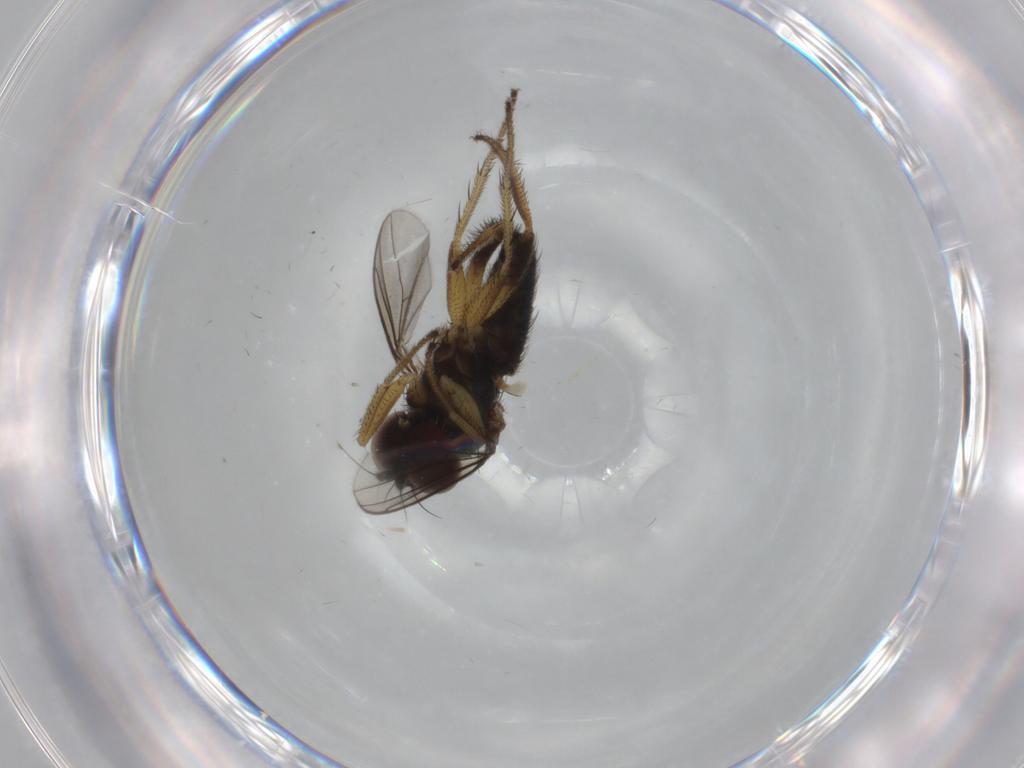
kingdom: Animalia
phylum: Arthropoda
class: Insecta
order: Diptera
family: Dolichopodidae
